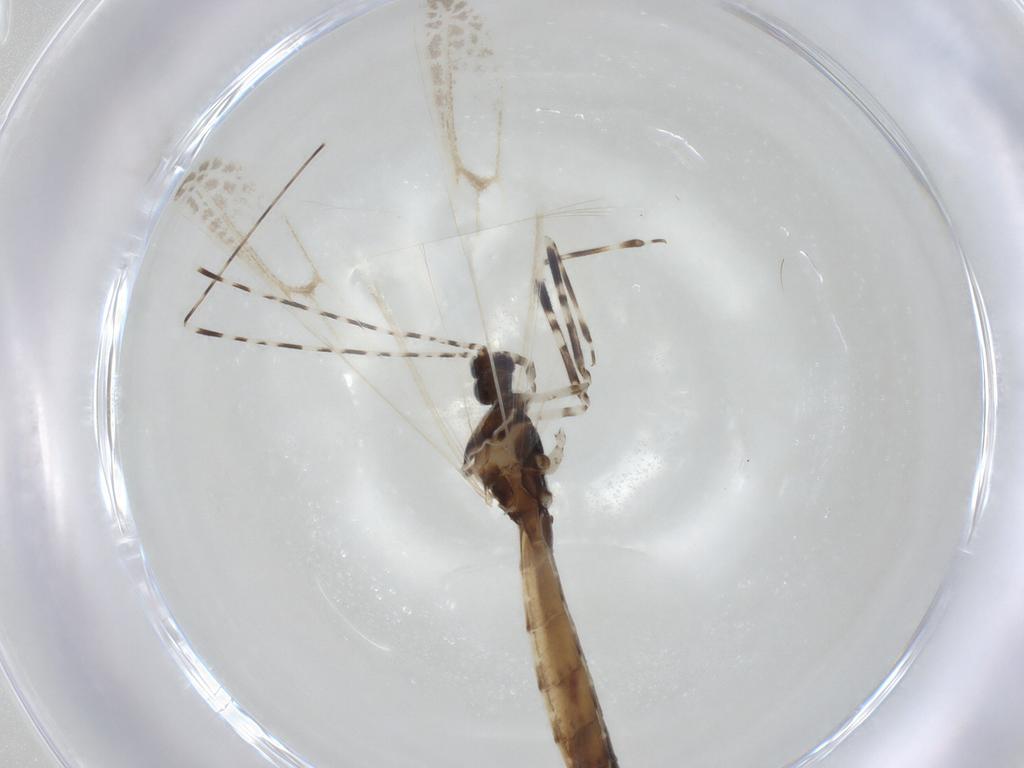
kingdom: Animalia
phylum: Arthropoda
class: Insecta
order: Hemiptera
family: Reduviidae
